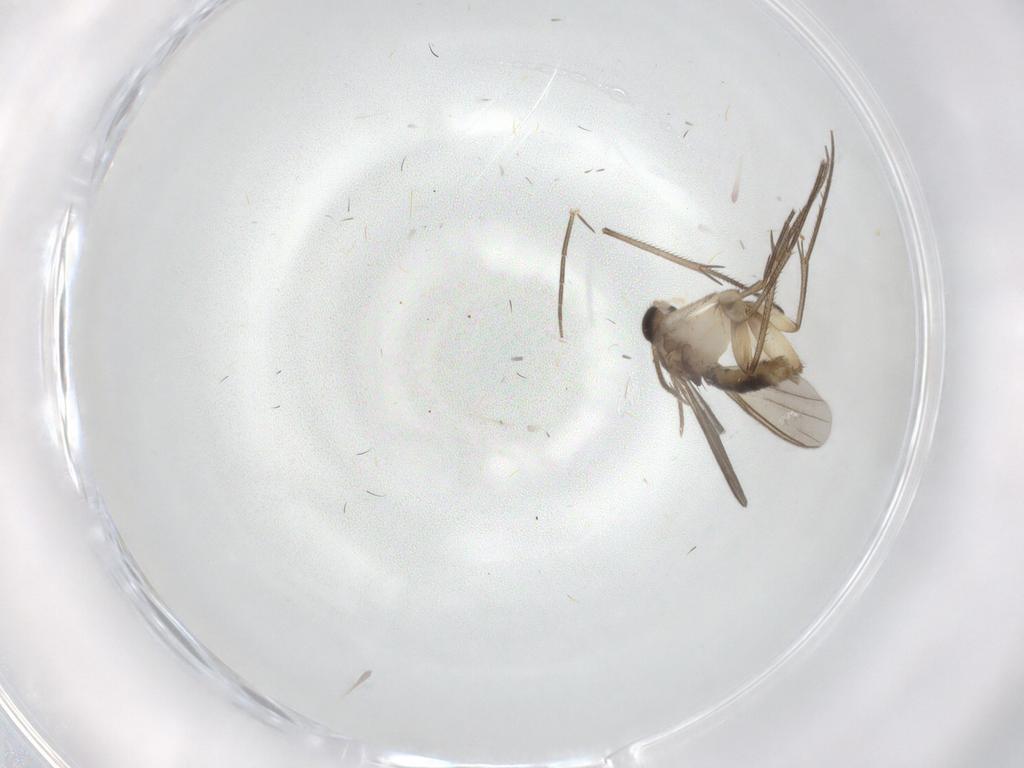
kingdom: Animalia
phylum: Arthropoda
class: Insecta
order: Diptera
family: Mycetophilidae
